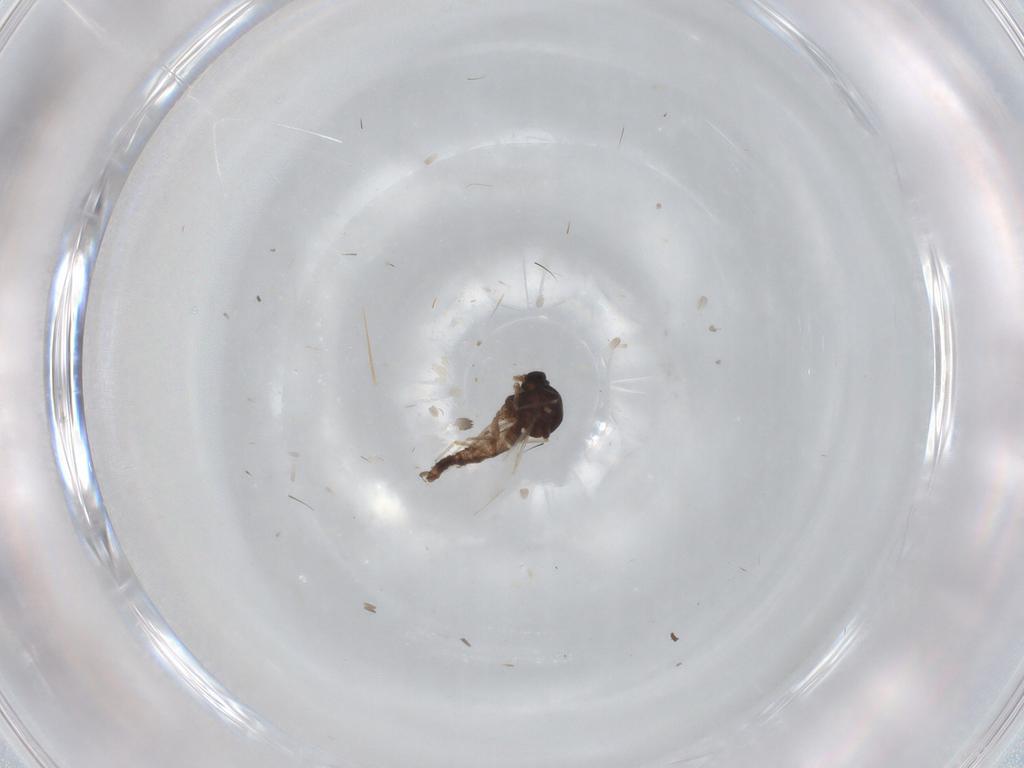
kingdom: Animalia
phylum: Arthropoda
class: Insecta
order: Diptera
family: Ceratopogonidae
